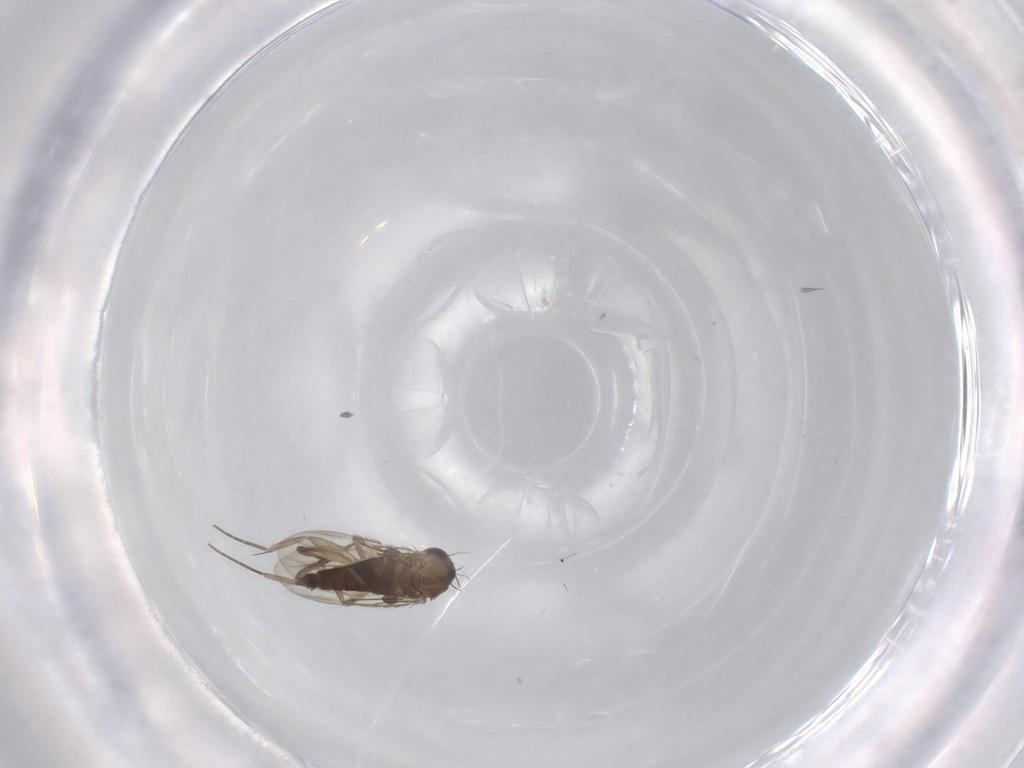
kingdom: Animalia
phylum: Arthropoda
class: Insecta
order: Diptera
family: Phoridae
